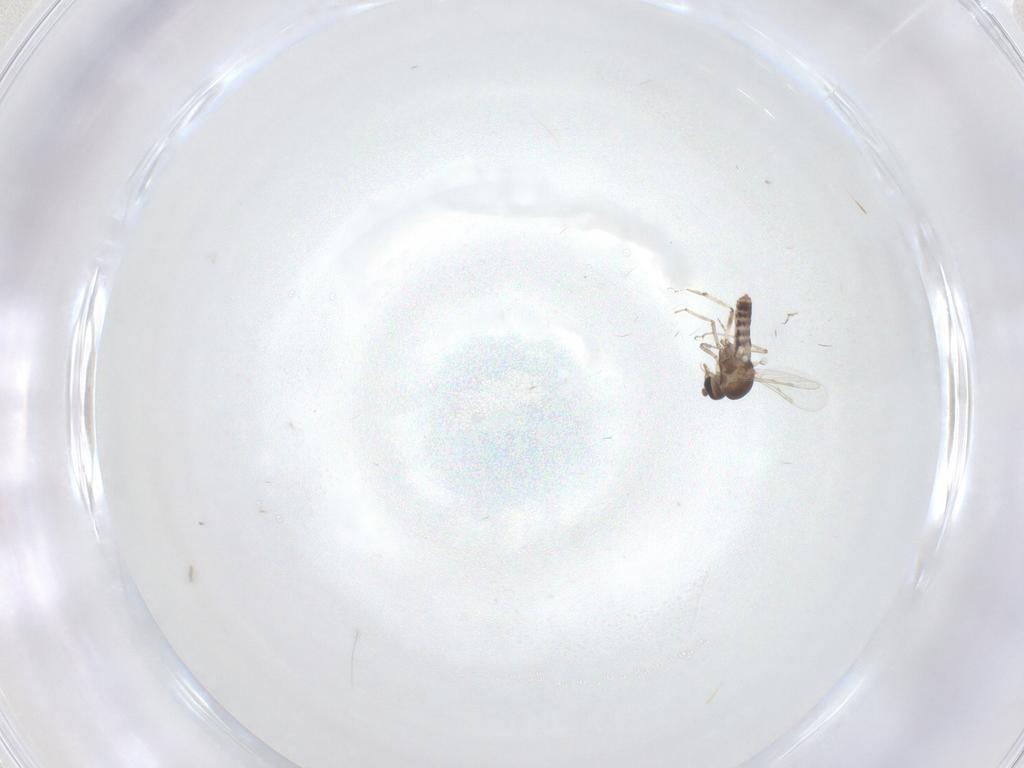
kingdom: Animalia
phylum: Arthropoda
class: Insecta
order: Diptera
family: Ceratopogonidae
